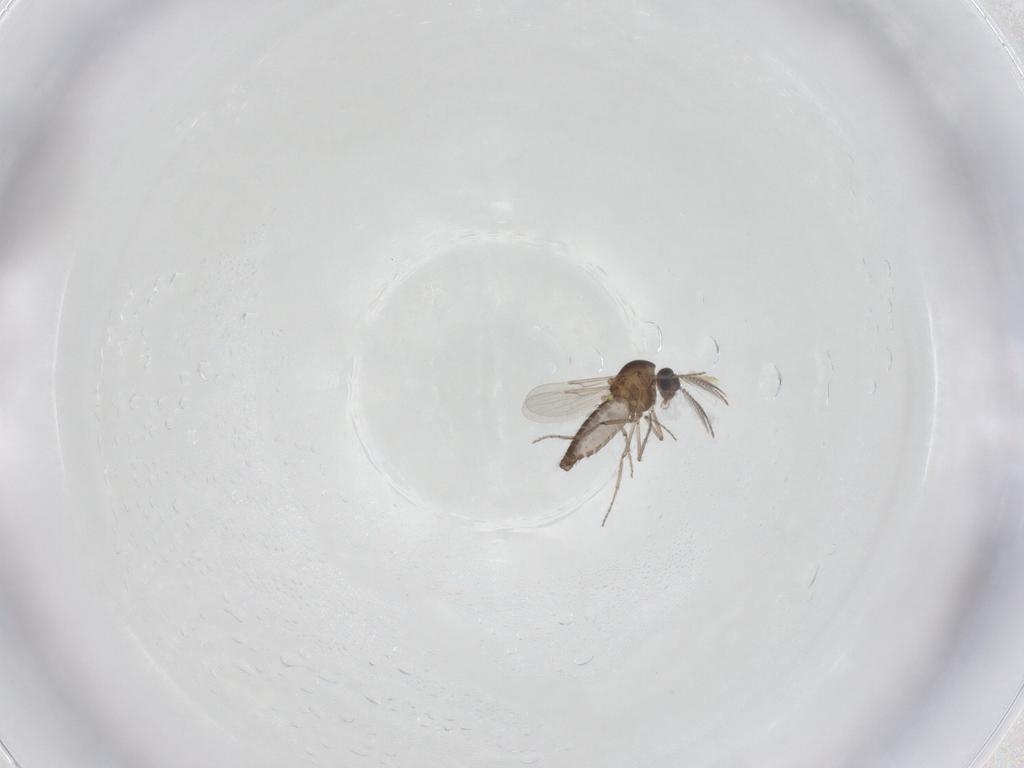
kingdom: Animalia
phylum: Arthropoda
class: Insecta
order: Diptera
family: Ceratopogonidae
